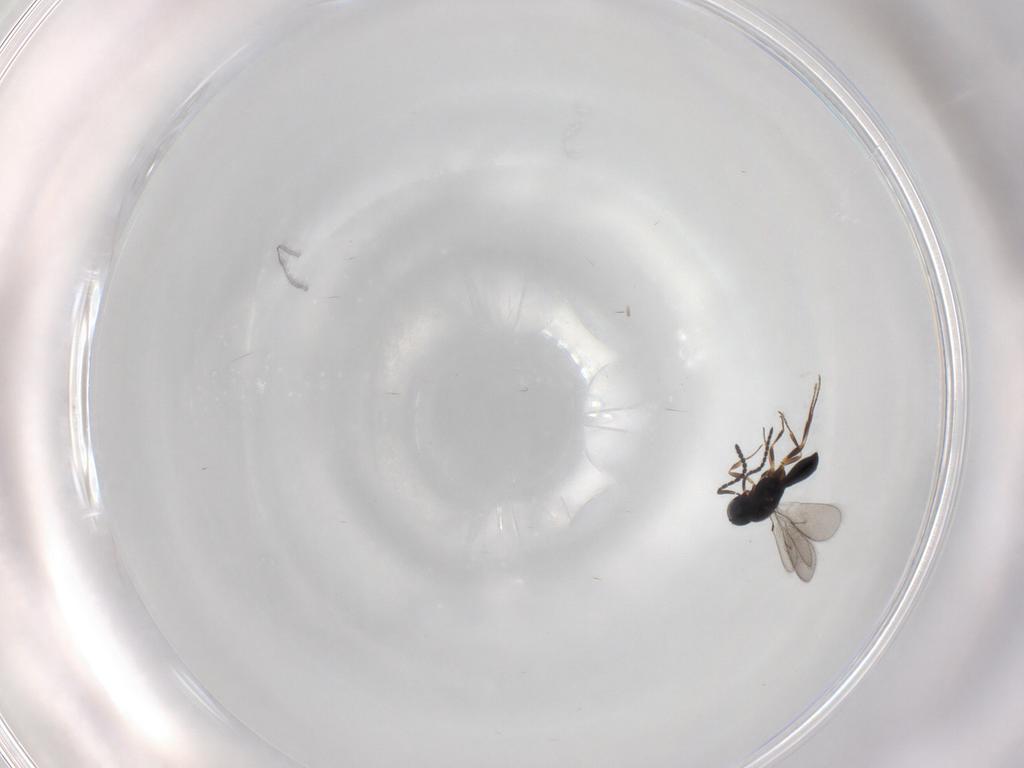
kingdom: Animalia
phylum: Arthropoda
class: Insecta
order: Hymenoptera
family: Scelionidae
